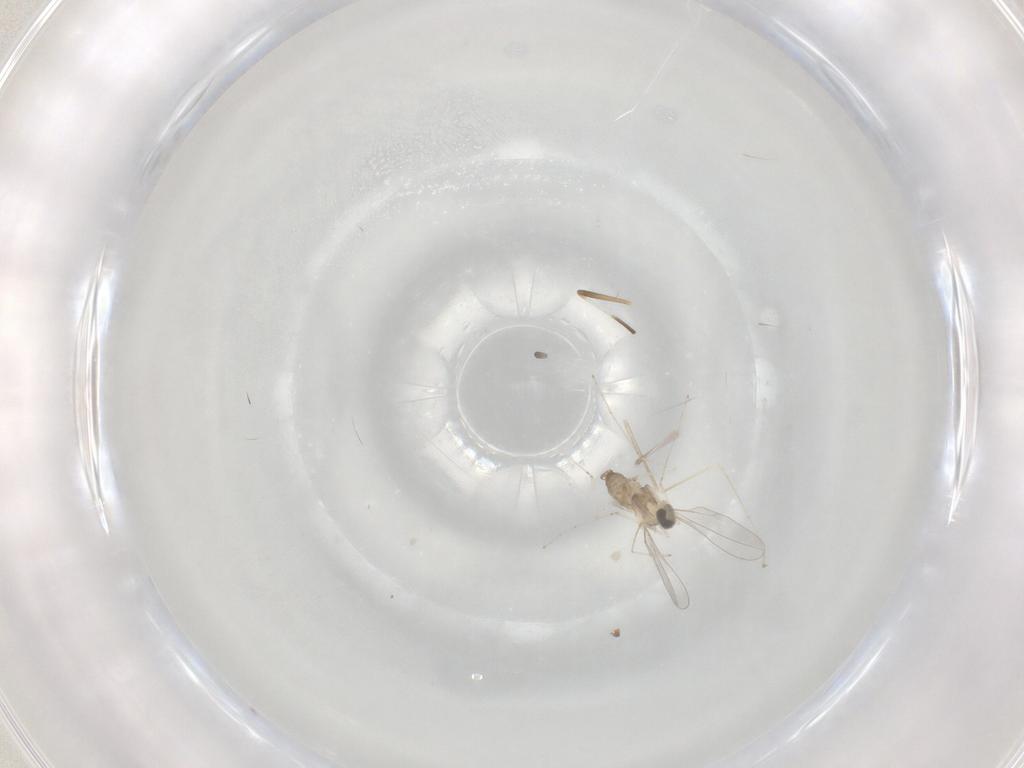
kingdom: Animalia
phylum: Arthropoda
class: Insecta
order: Diptera
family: Cecidomyiidae
